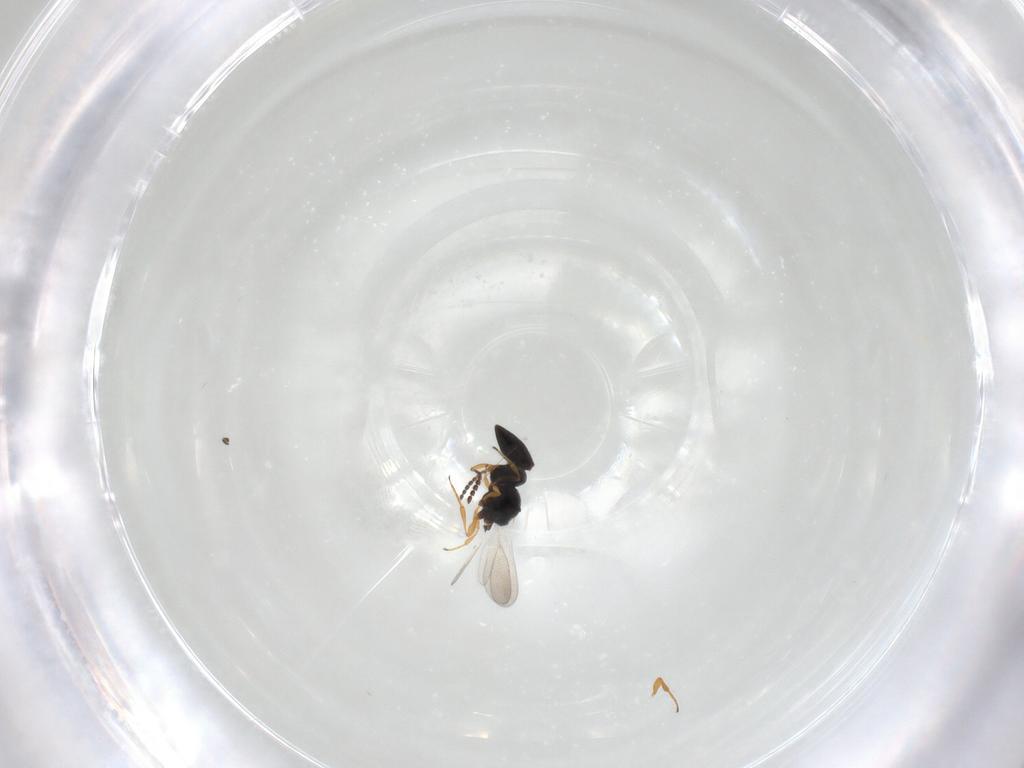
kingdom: Animalia
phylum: Arthropoda
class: Insecta
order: Hymenoptera
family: Platygastridae
